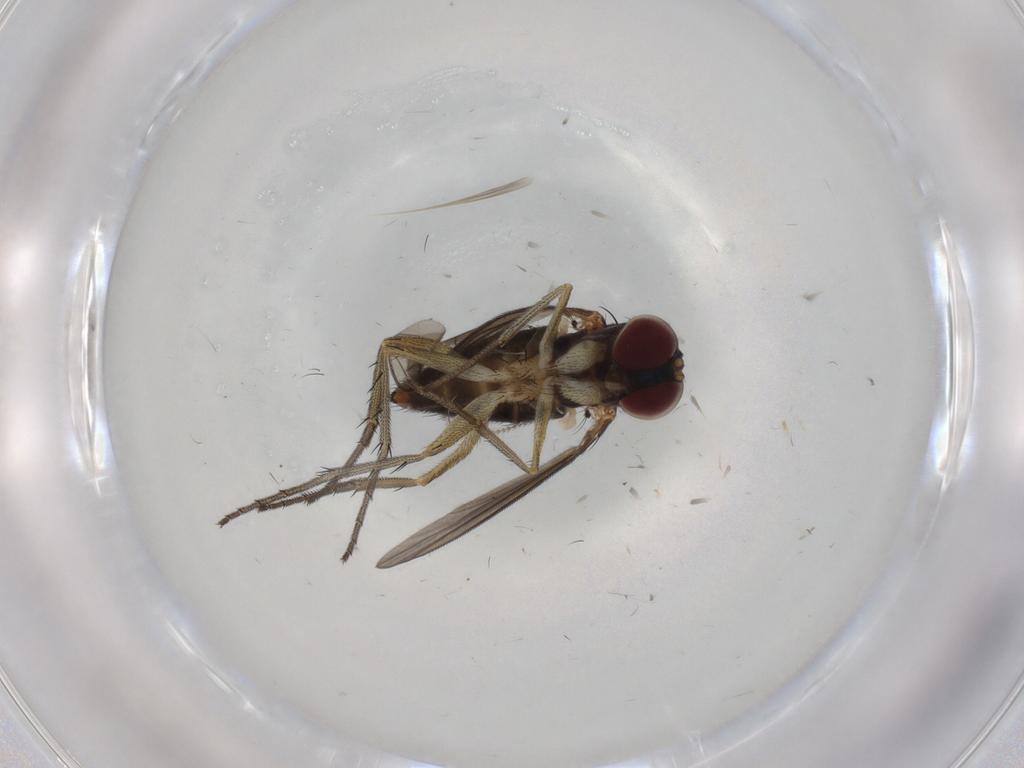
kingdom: Animalia
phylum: Arthropoda
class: Insecta
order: Diptera
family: Dolichopodidae
